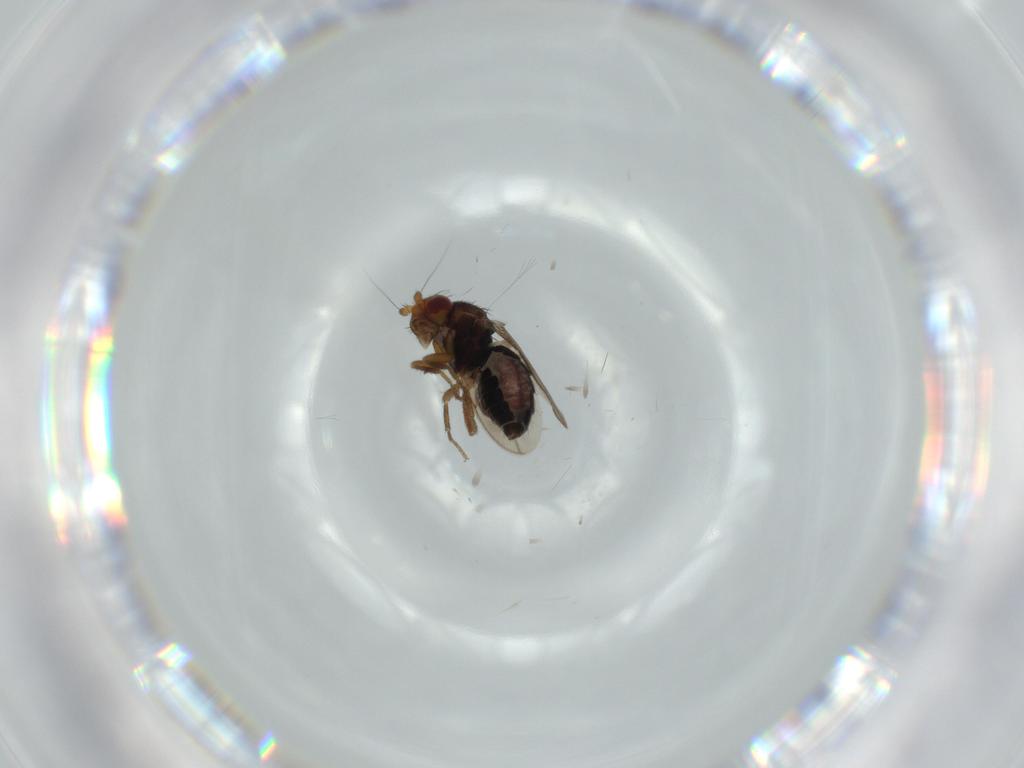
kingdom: Animalia
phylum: Arthropoda
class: Insecta
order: Diptera
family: Sphaeroceridae
